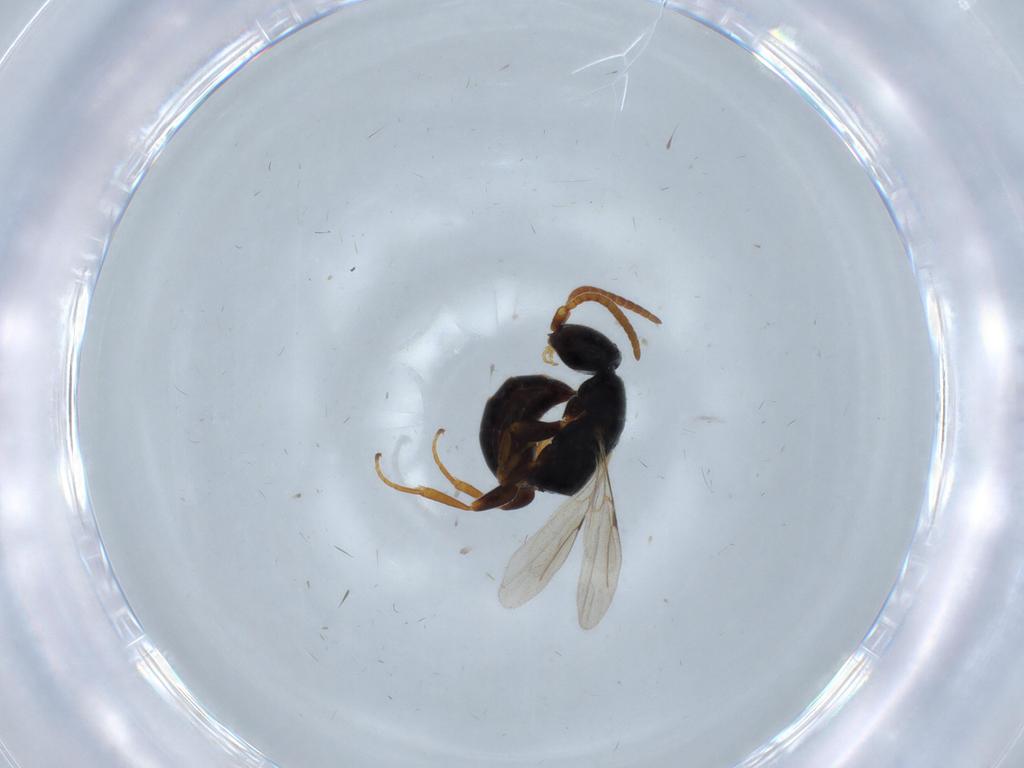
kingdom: Animalia
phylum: Arthropoda
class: Insecta
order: Hymenoptera
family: Bethylidae
